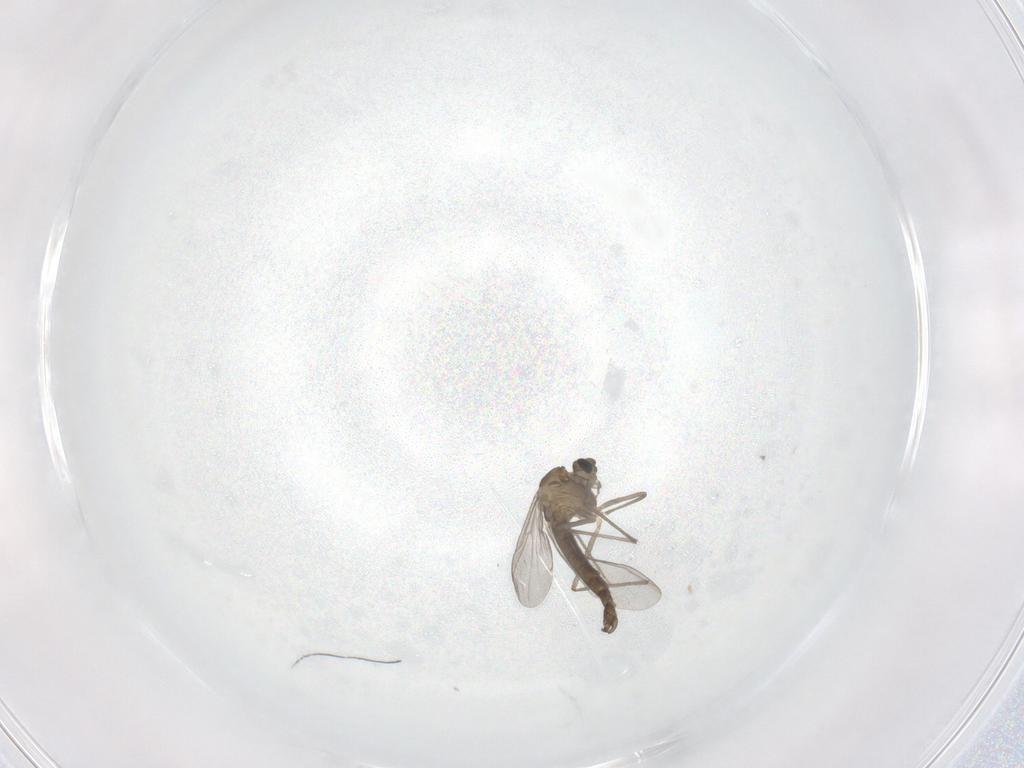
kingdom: Animalia
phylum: Arthropoda
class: Insecta
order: Diptera
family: Chironomidae
